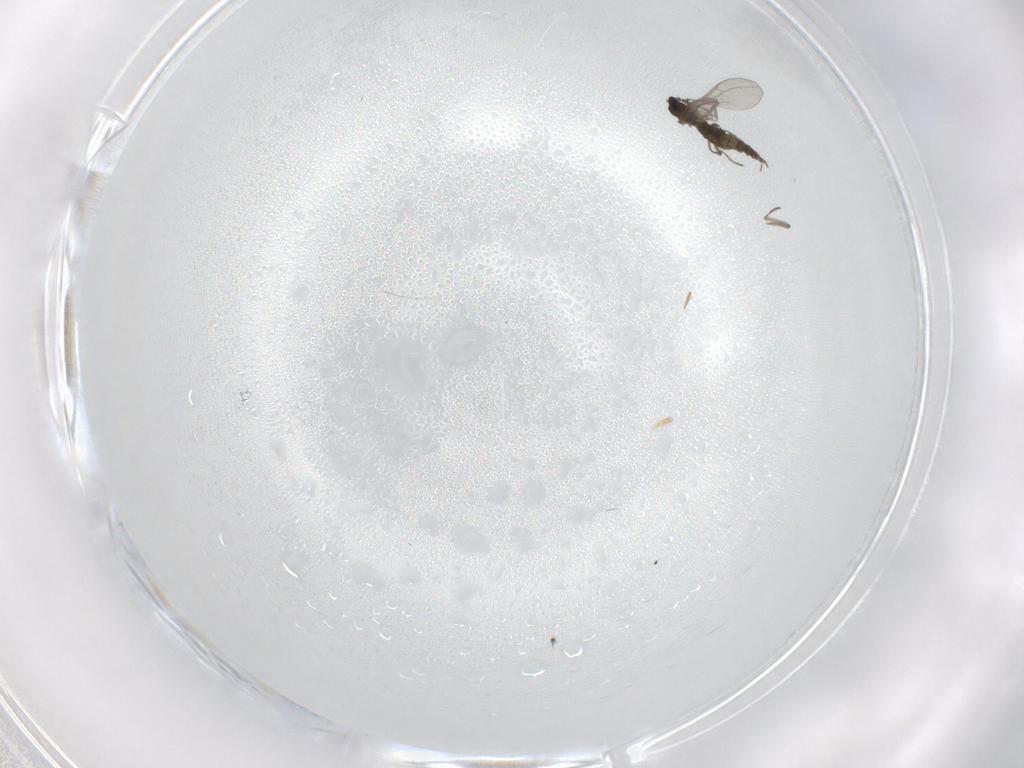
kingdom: Animalia
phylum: Arthropoda
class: Insecta
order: Diptera
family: Cecidomyiidae
